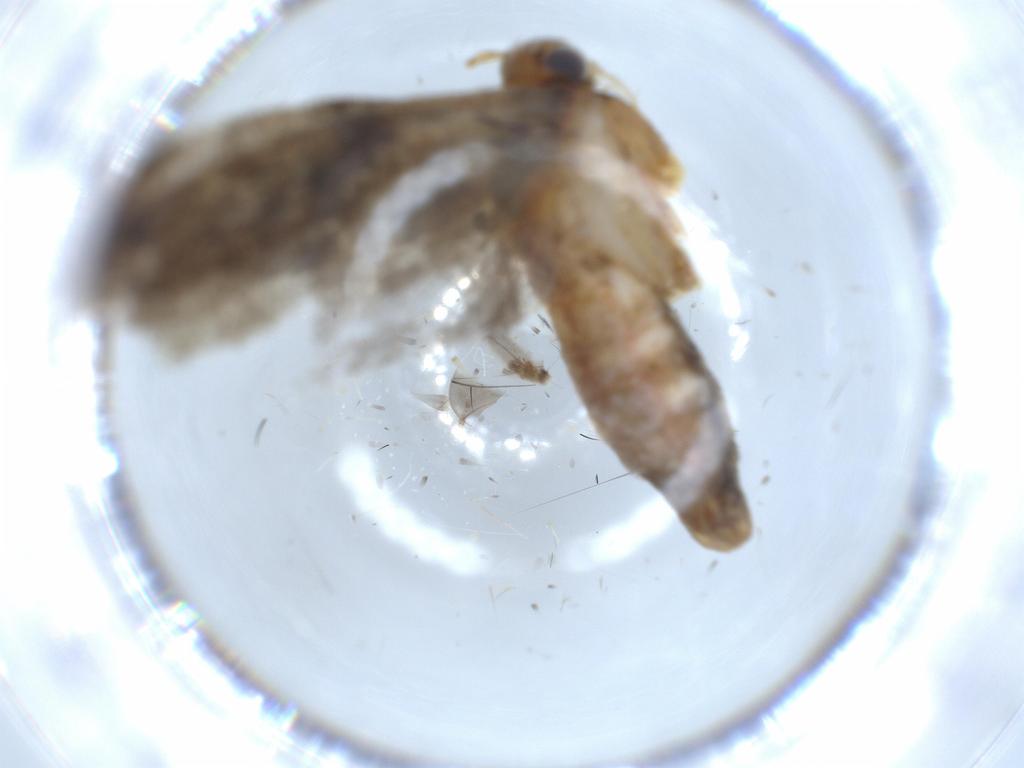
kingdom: Animalia
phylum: Arthropoda
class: Insecta
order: Lepidoptera
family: Gelechiidae
